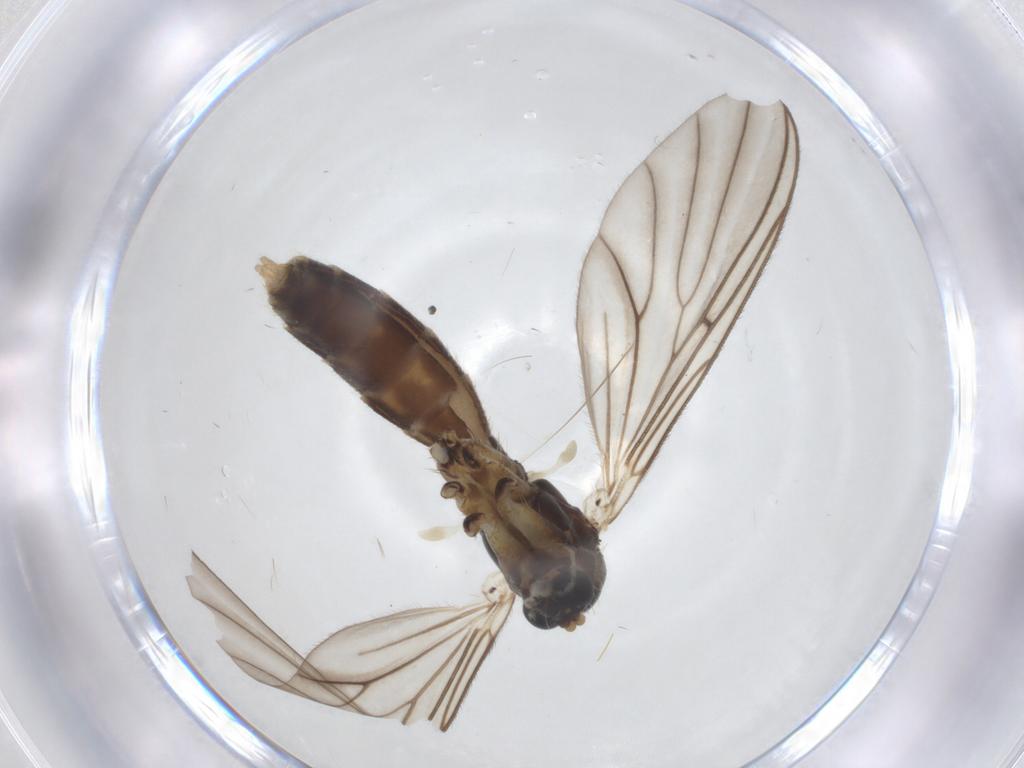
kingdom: Animalia
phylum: Arthropoda
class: Insecta
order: Diptera
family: Mycetophilidae
